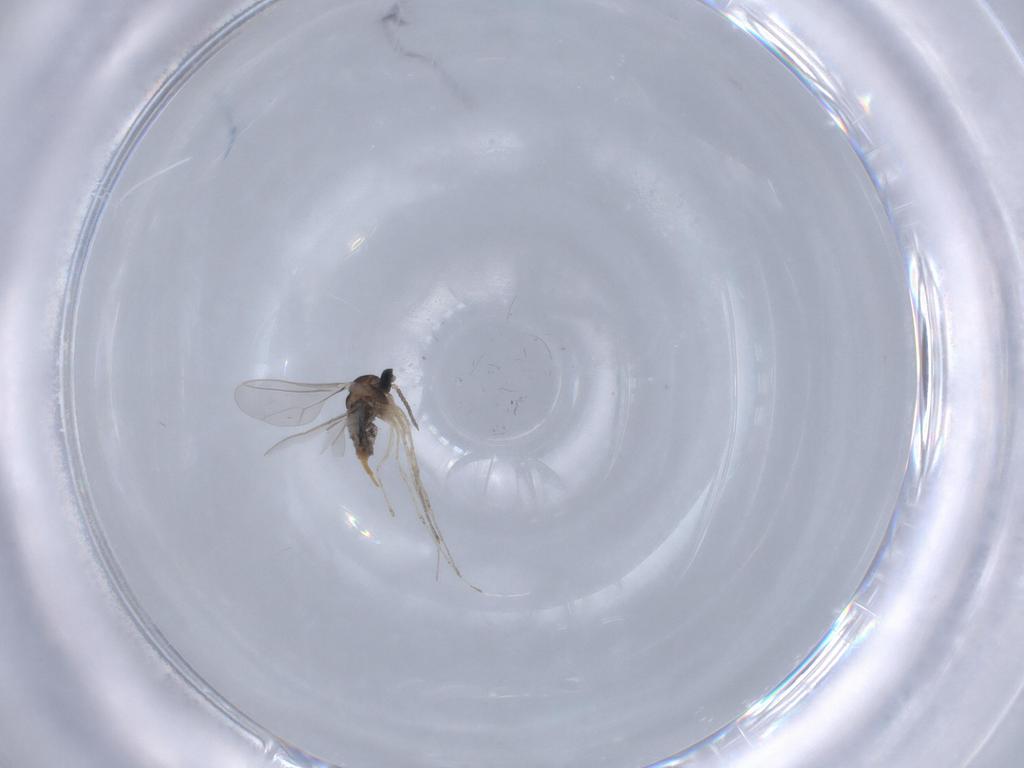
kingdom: Animalia
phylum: Arthropoda
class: Insecta
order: Diptera
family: Cecidomyiidae
